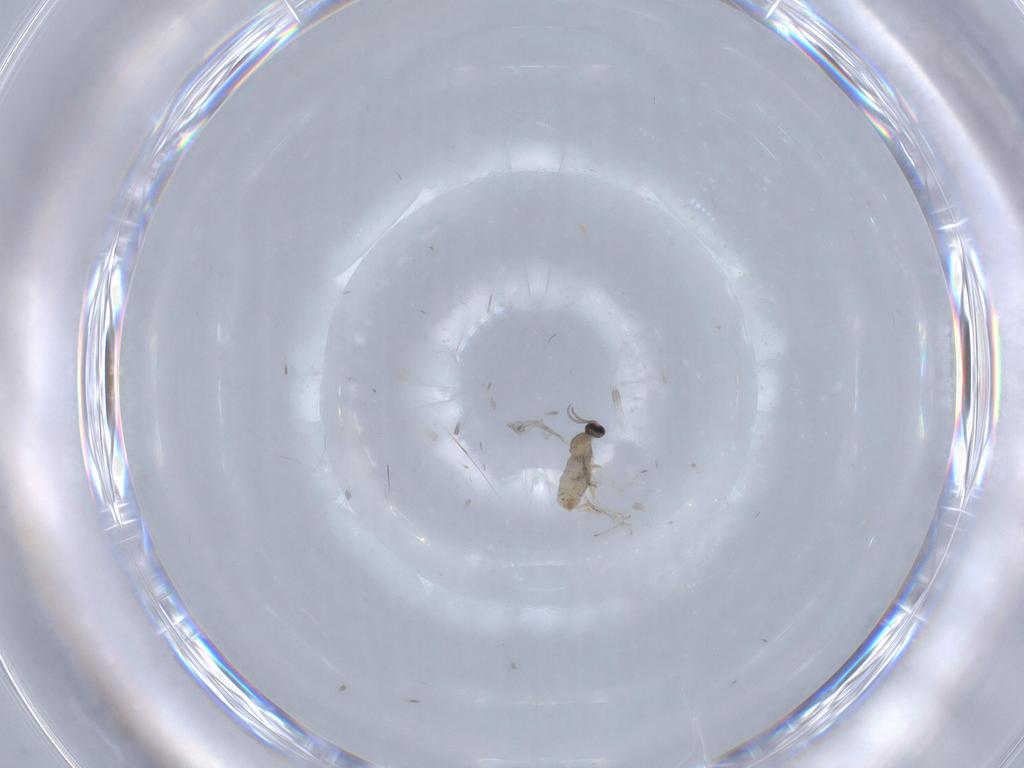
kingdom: Animalia
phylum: Arthropoda
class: Insecta
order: Diptera
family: Cecidomyiidae
